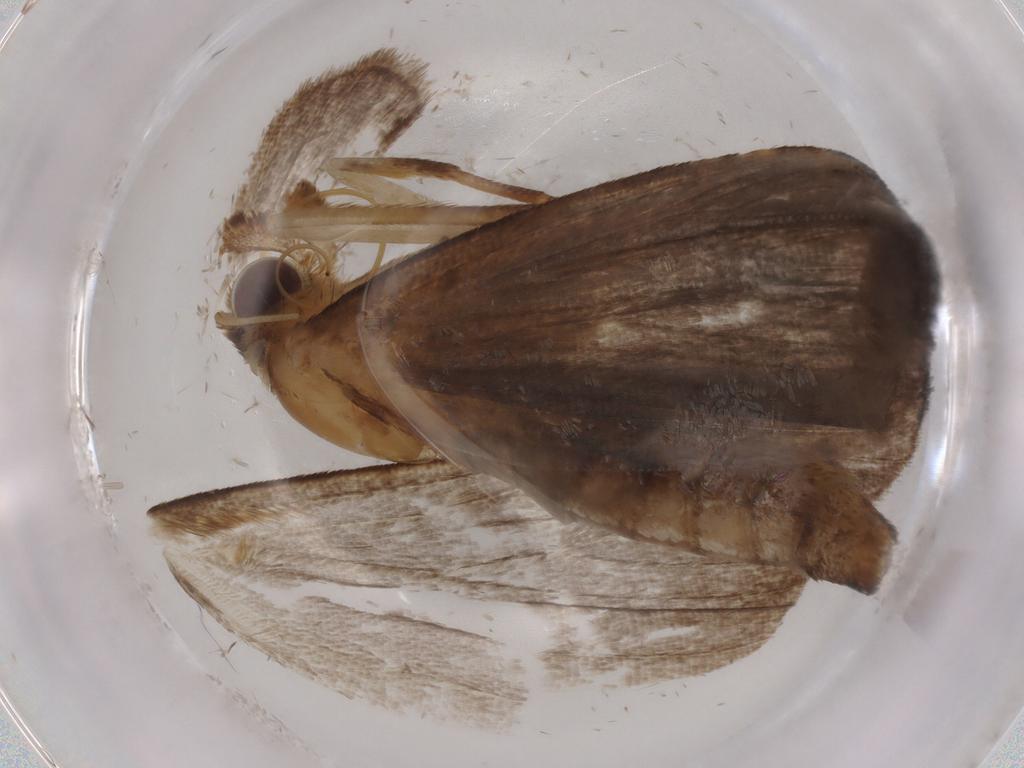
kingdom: Animalia
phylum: Arthropoda
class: Insecta
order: Lepidoptera
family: Erebidae
